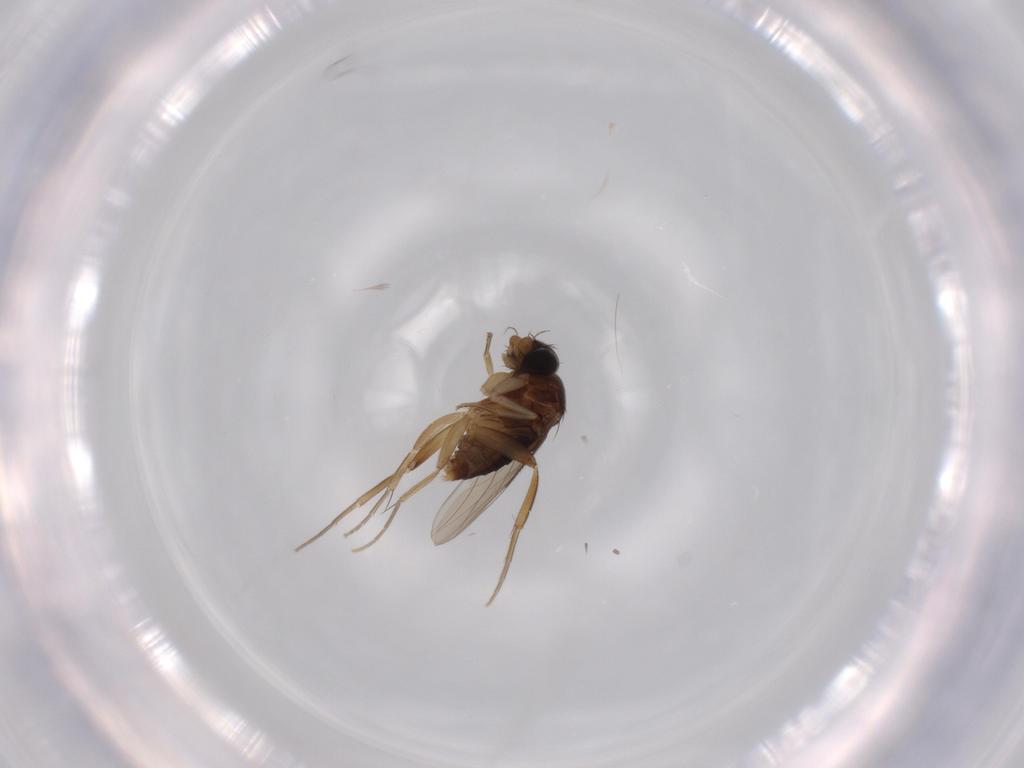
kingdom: Animalia
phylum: Arthropoda
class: Insecta
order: Diptera
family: Phoridae
